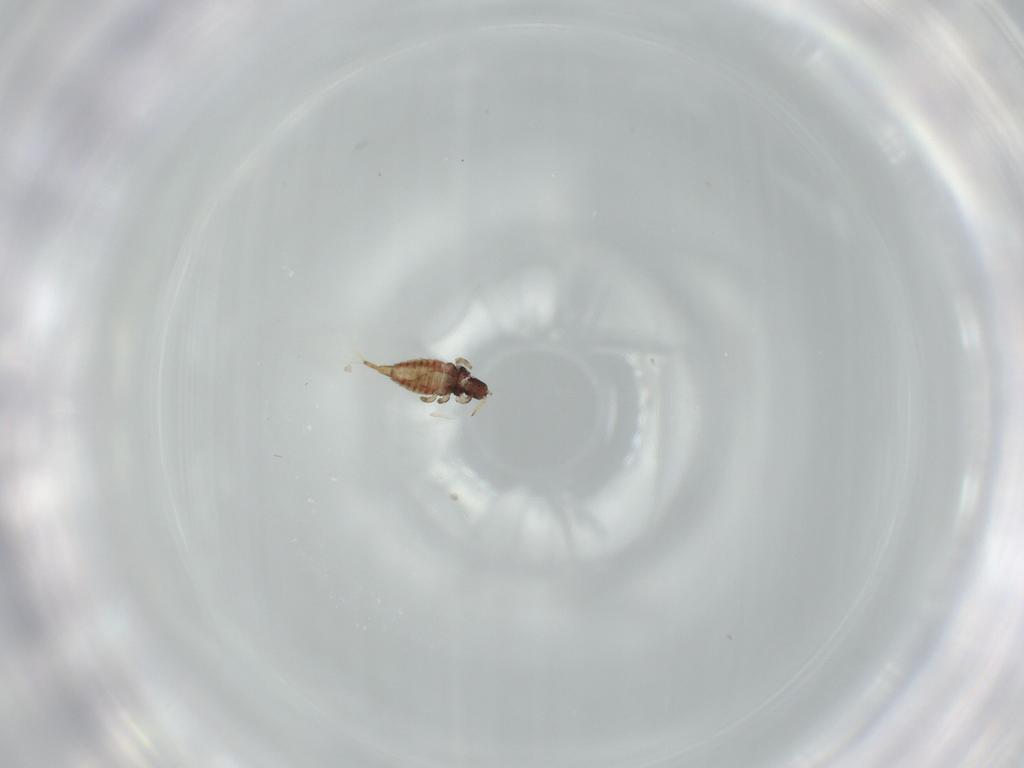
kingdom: Animalia
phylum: Arthropoda
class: Insecta
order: Thysanoptera
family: Phlaeothripidae
